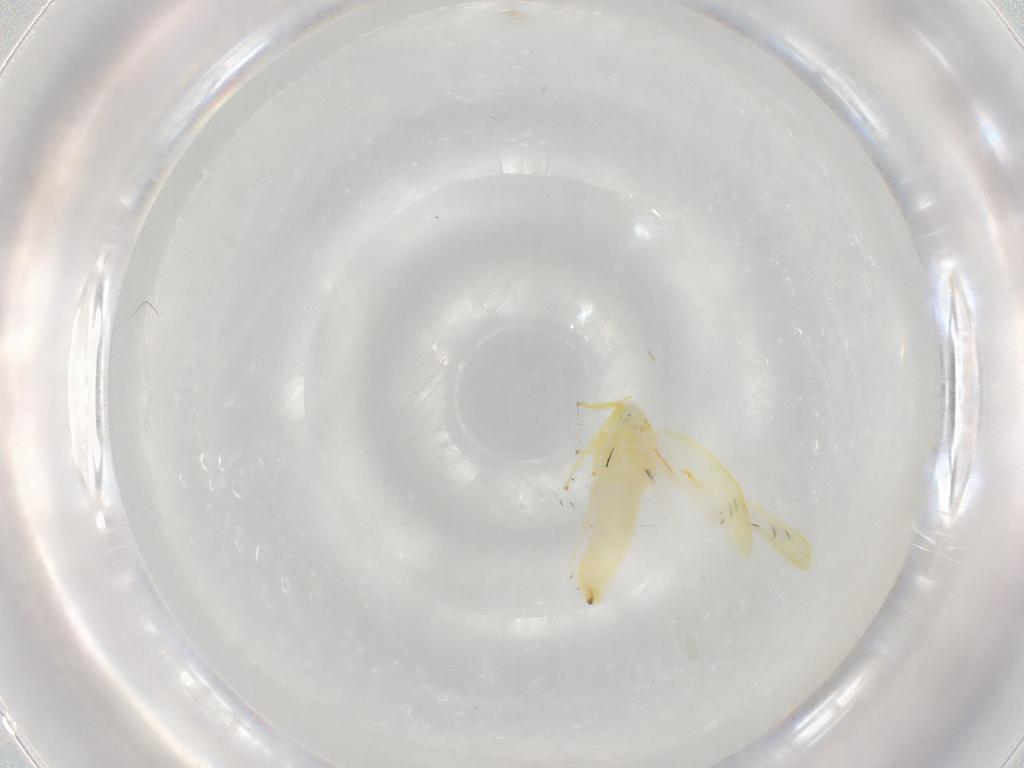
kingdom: Animalia
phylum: Arthropoda
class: Insecta
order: Hemiptera
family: Cicadellidae
